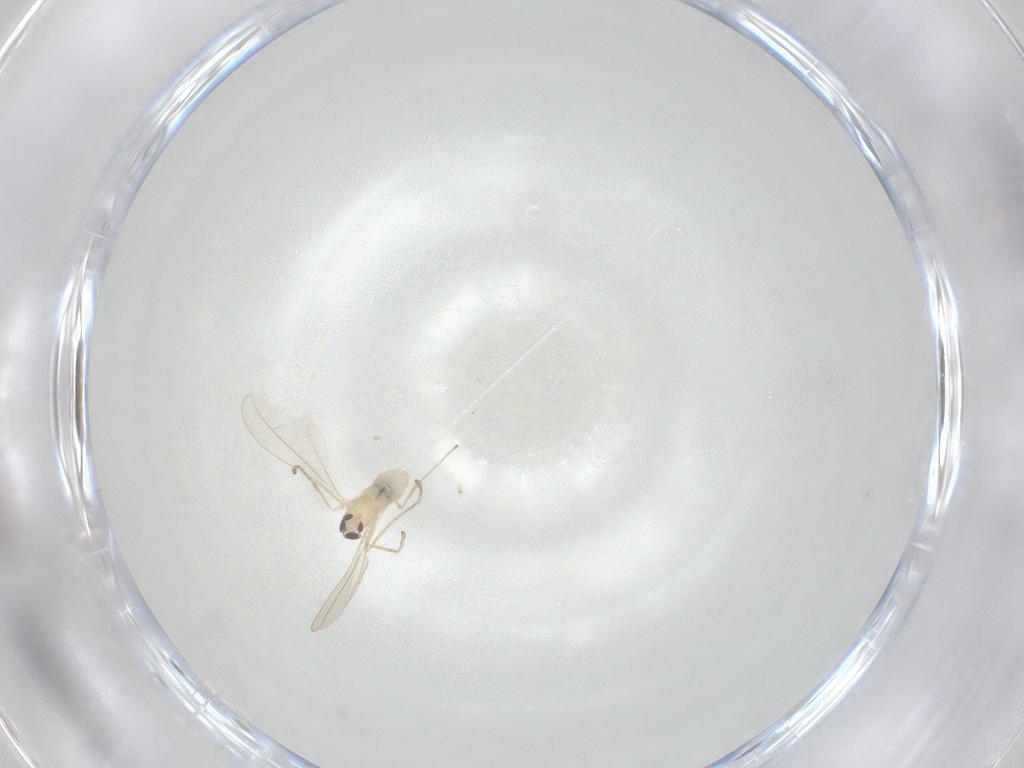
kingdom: Animalia
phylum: Arthropoda
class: Insecta
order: Diptera
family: Cecidomyiidae
